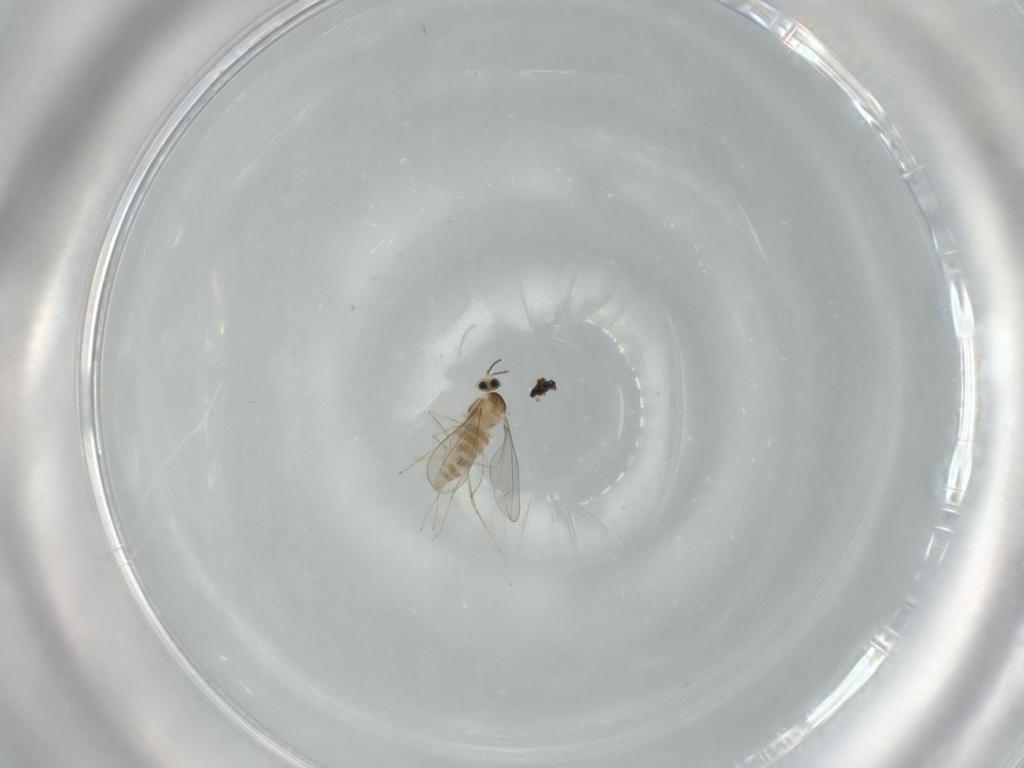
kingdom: Animalia
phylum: Arthropoda
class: Insecta
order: Diptera
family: Cecidomyiidae
